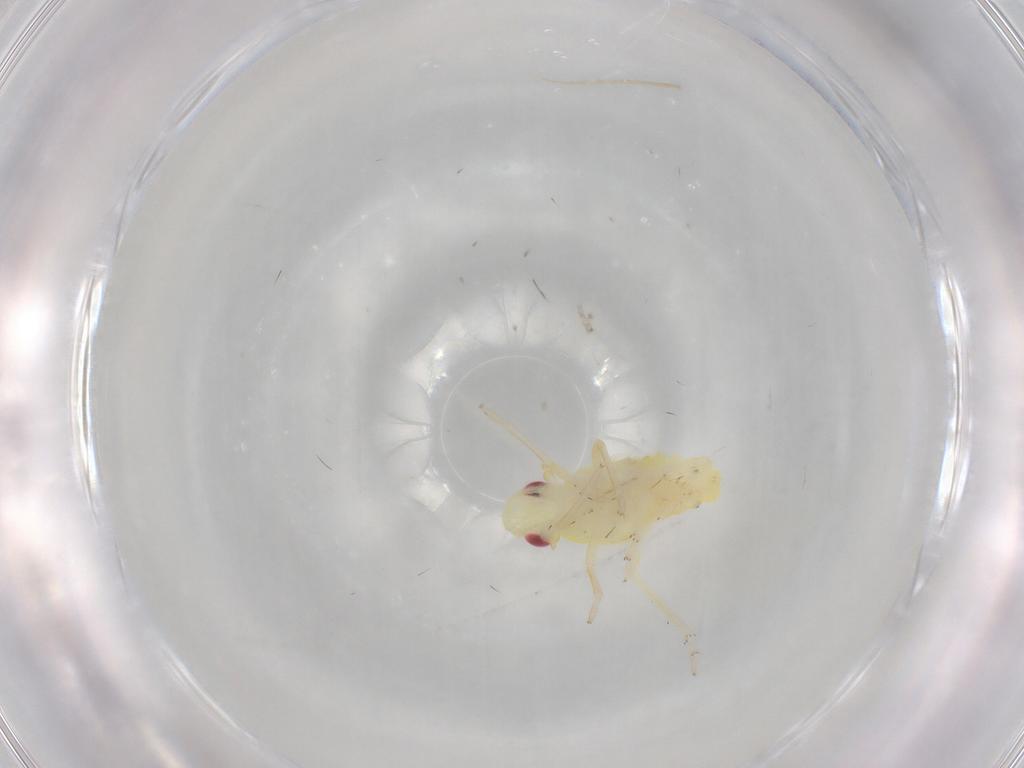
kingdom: Animalia
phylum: Arthropoda
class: Insecta
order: Hemiptera
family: Tropiduchidae
